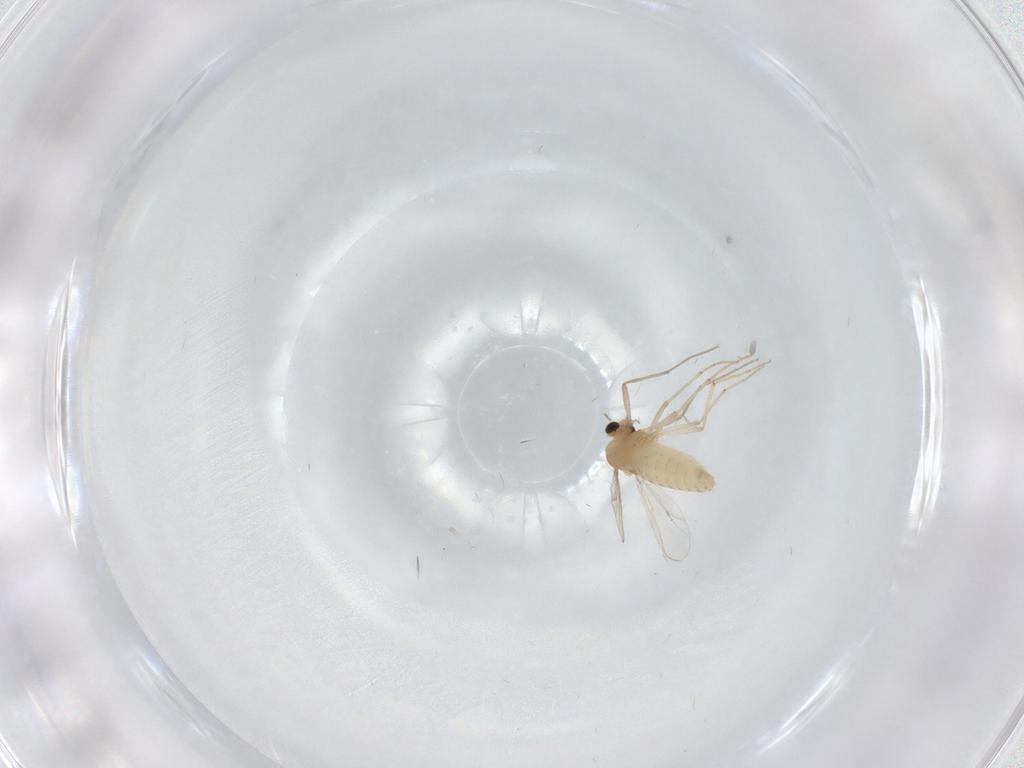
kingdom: Animalia
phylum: Arthropoda
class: Insecta
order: Diptera
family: Chironomidae
